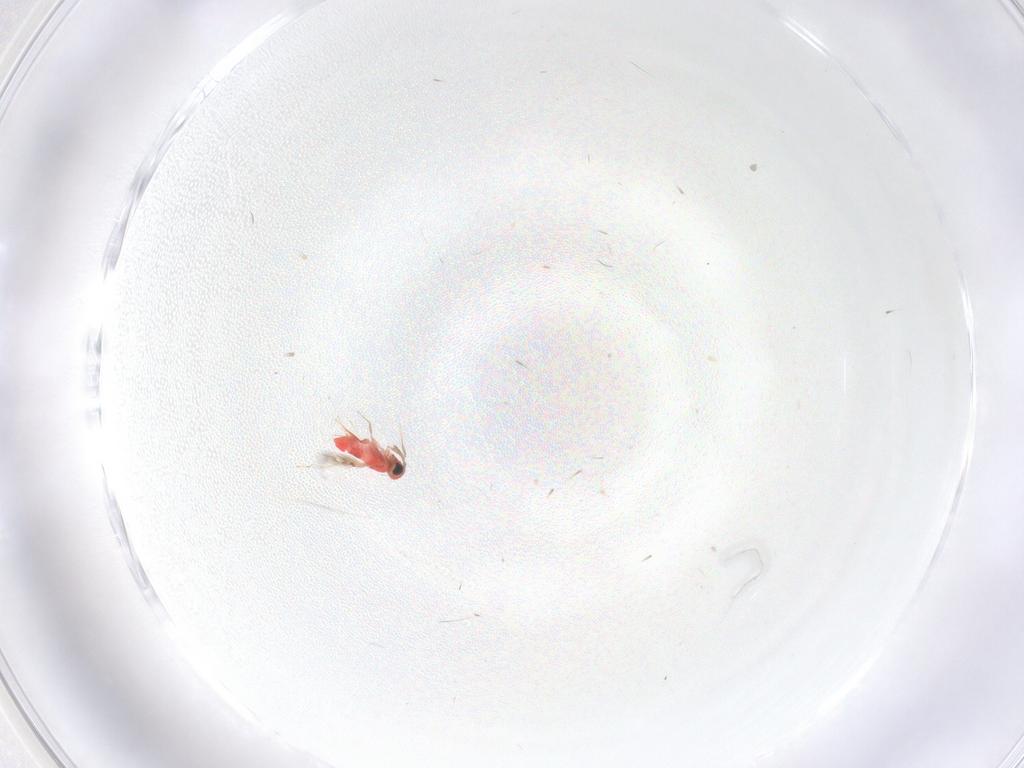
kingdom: Animalia
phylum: Arthropoda
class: Insecta
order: Hymenoptera
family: Trichogrammatidae
